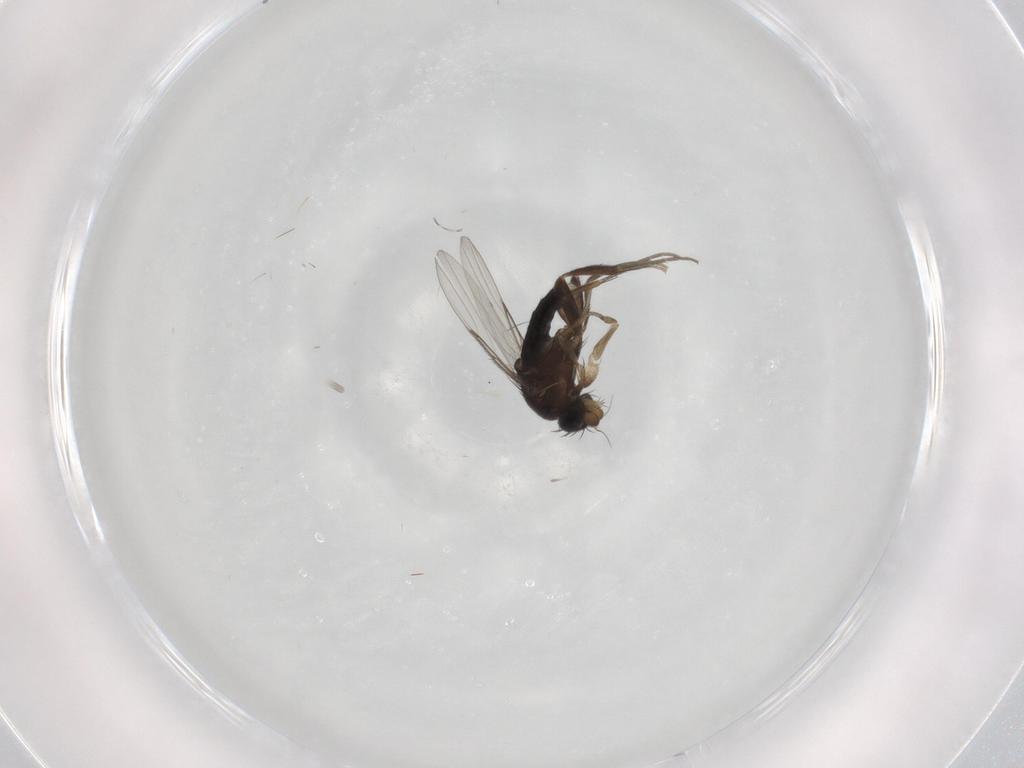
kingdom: Animalia
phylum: Arthropoda
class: Insecta
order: Diptera
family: Phoridae
